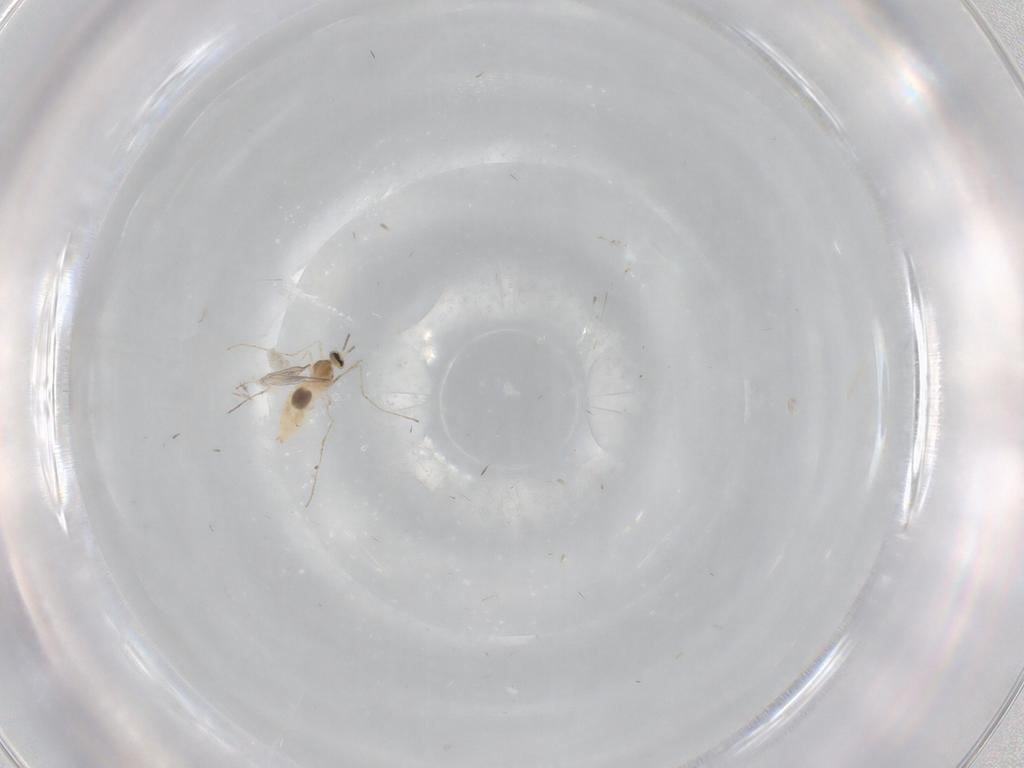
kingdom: Animalia
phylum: Arthropoda
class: Insecta
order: Diptera
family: Cecidomyiidae
